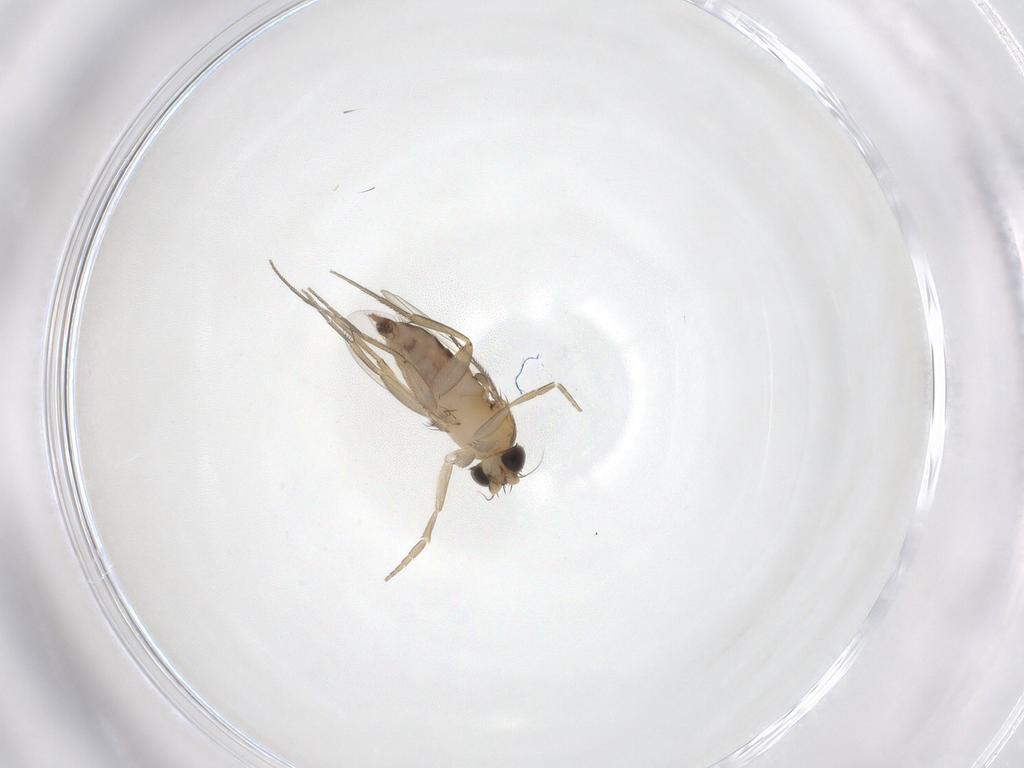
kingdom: Animalia
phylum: Arthropoda
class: Insecta
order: Diptera
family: Phoridae
